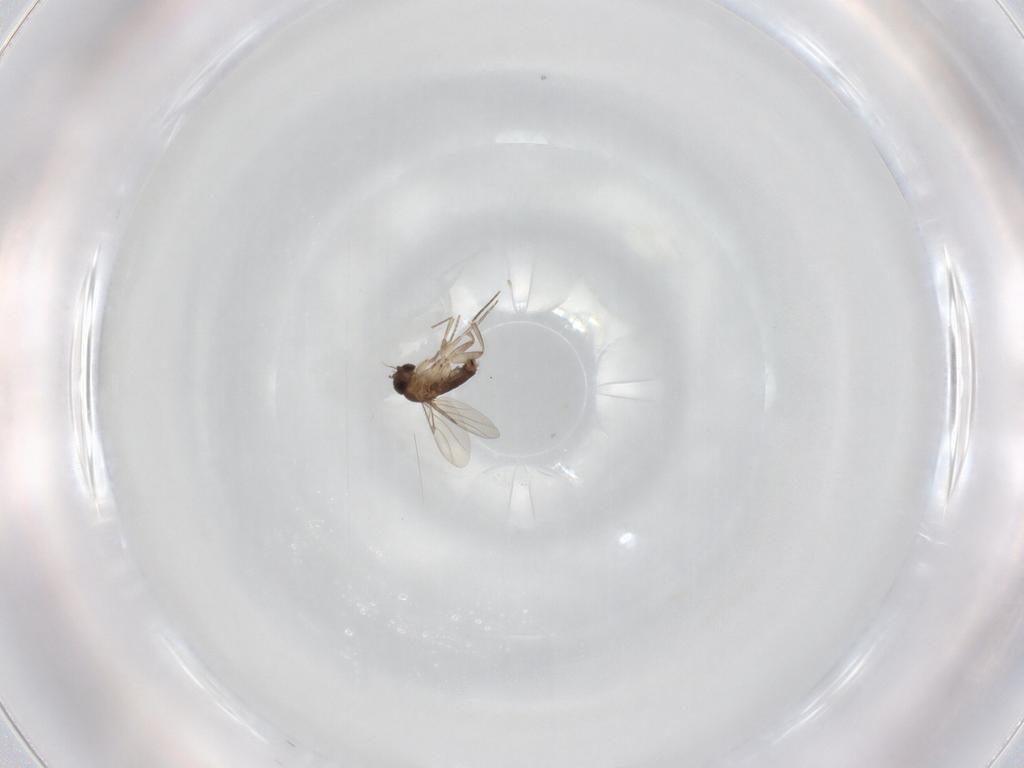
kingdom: Animalia
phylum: Arthropoda
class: Insecta
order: Diptera
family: Phoridae
